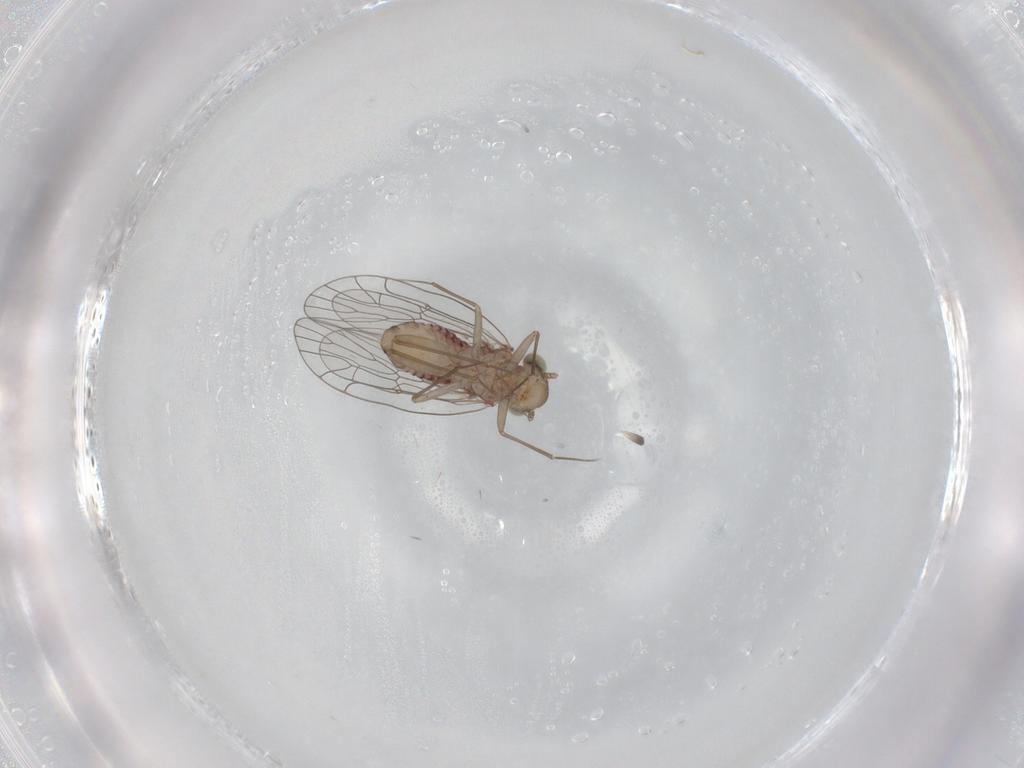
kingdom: Animalia
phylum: Arthropoda
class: Insecta
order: Psocodea
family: Amphientomidae
